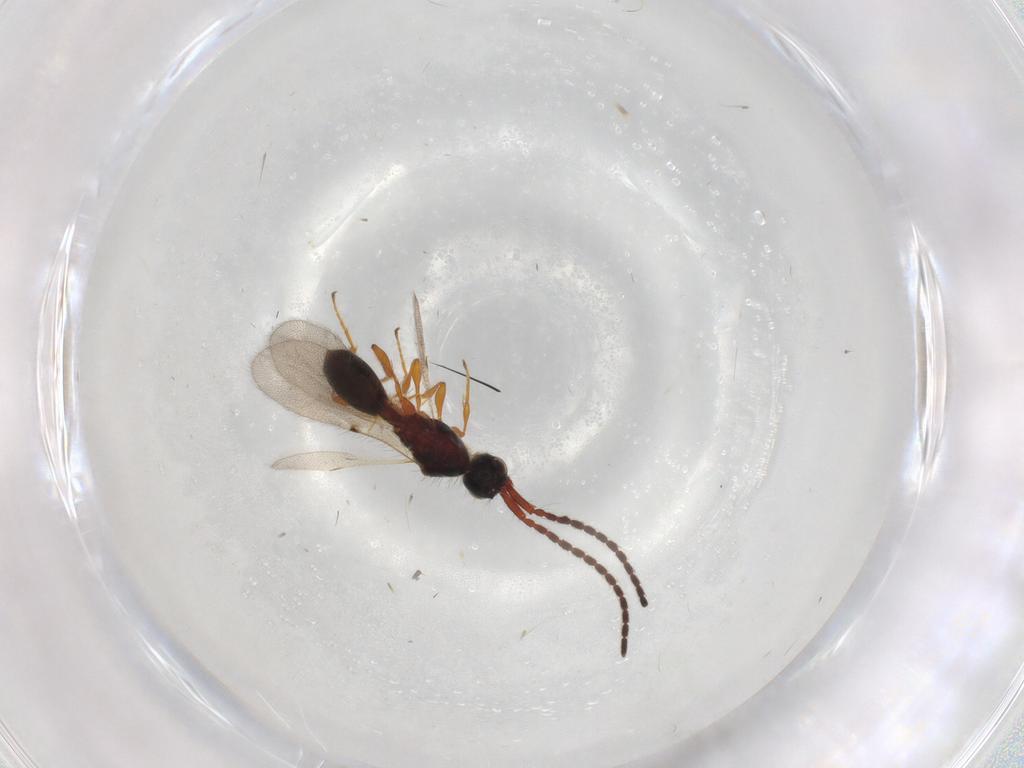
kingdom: Animalia
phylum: Arthropoda
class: Insecta
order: Hymenoptera
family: Diapriidae
